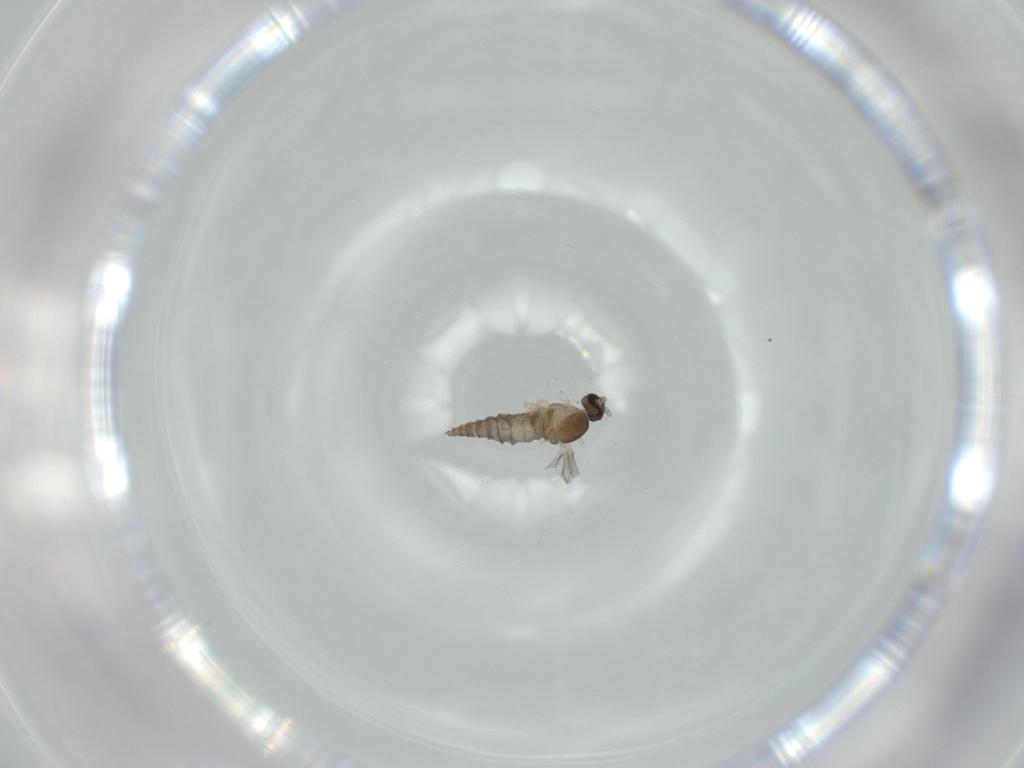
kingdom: Animalia
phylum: Arthropoda
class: Insecta
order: Diptera
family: Cecidomyiidae
